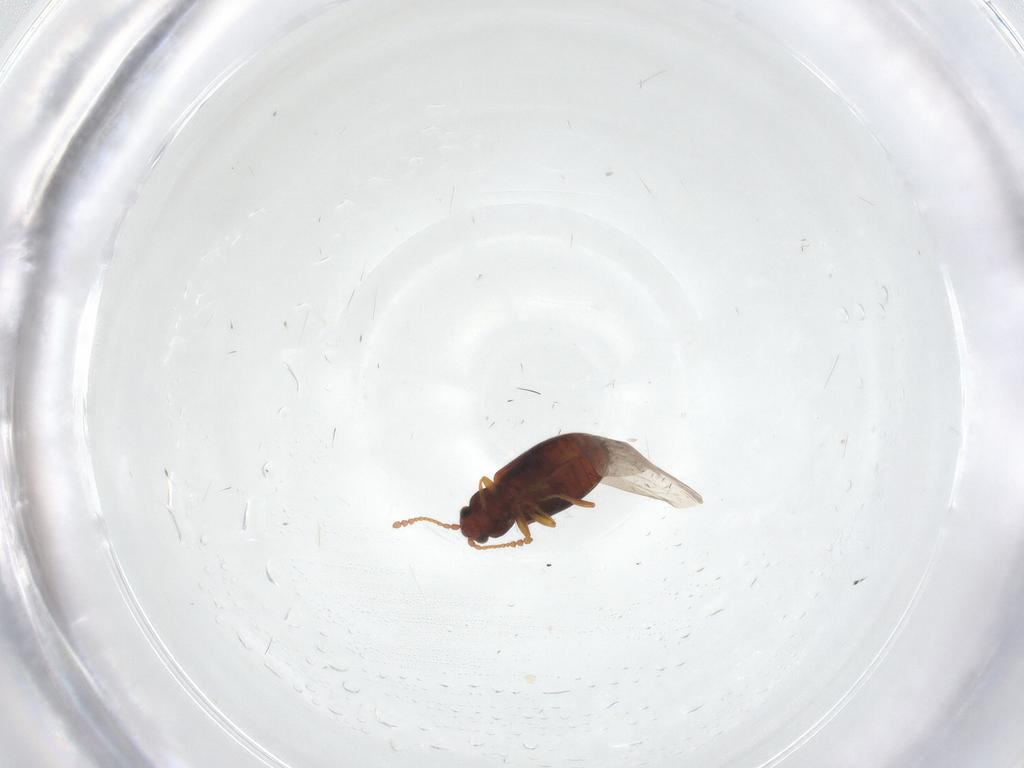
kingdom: Animalia
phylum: Arthropoda
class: Insecta
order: Coleoptera
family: Cryptophagidae
